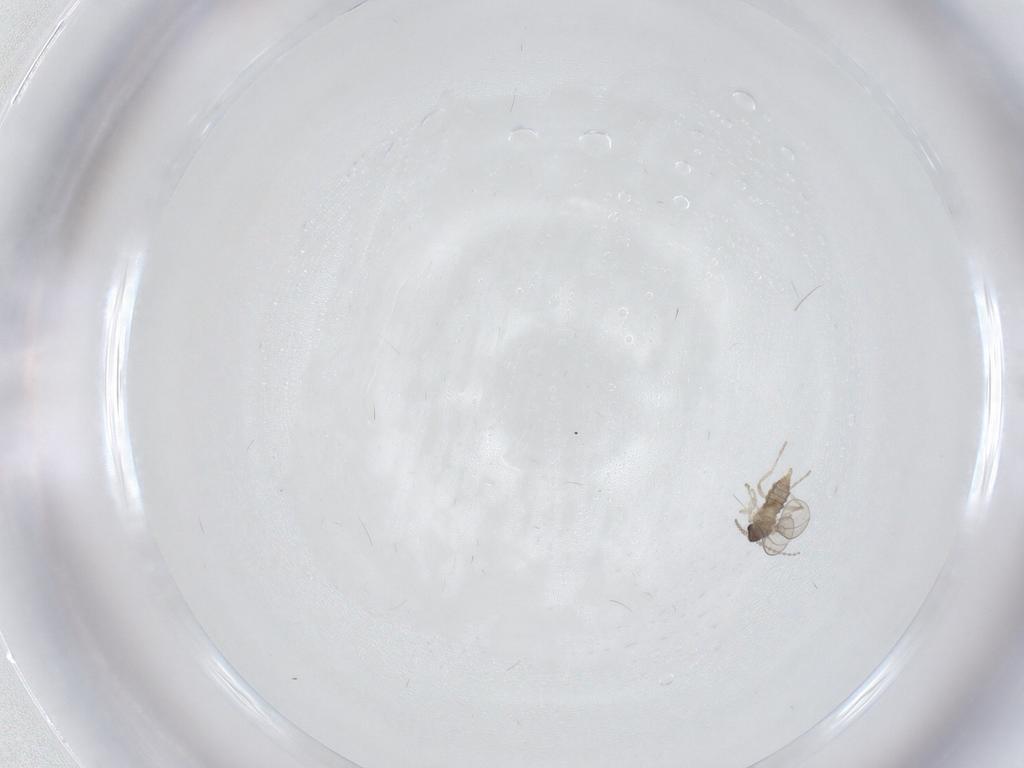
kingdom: Animalia
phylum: Arthropoda
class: Insecta
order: Diptera
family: Cecidomyiidae
